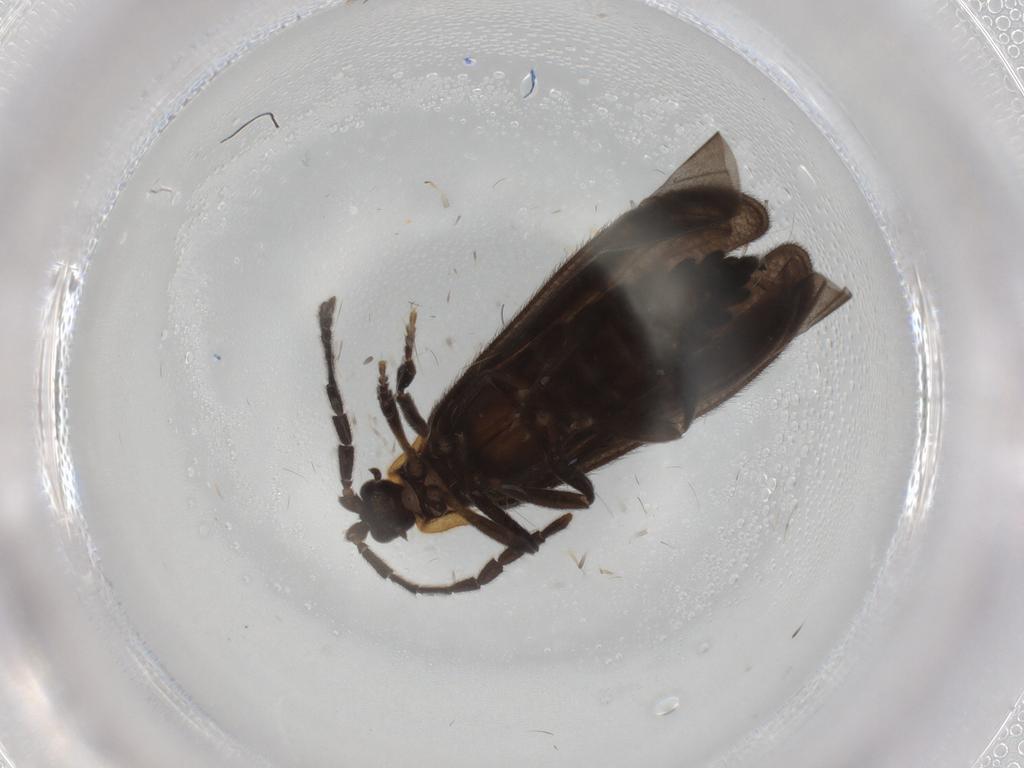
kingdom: Animalia
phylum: Arthropoda
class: Insecta
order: Coleoptera
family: Lycidae
